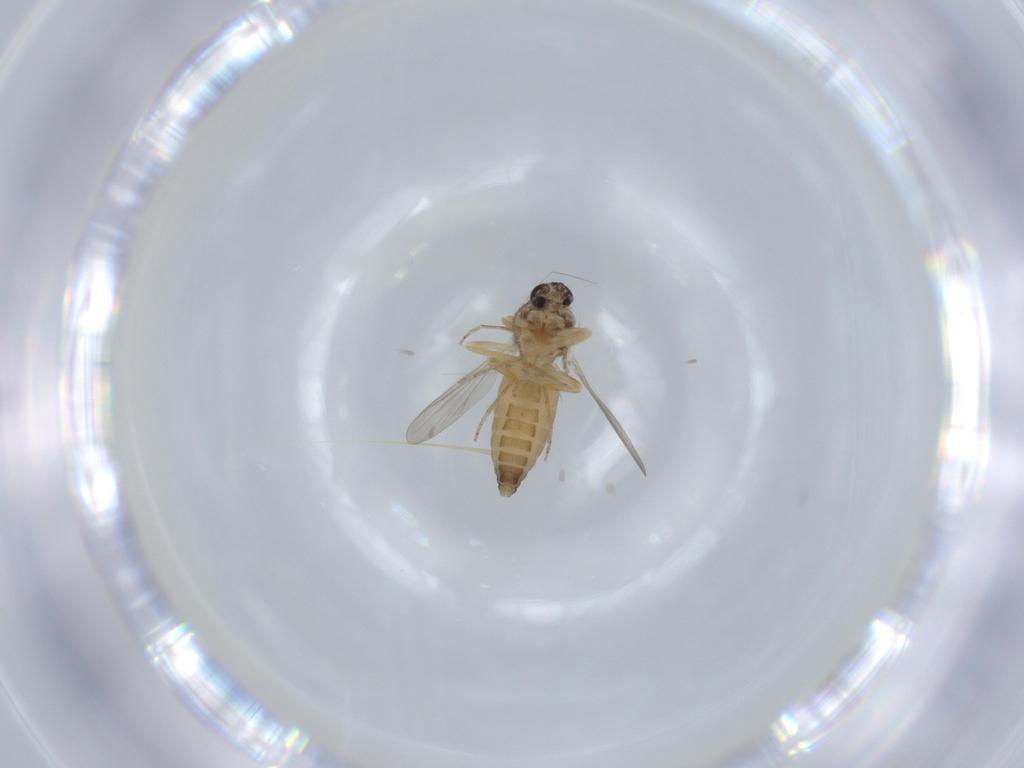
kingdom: Animalia
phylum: Arthropoda
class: Insecta
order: Diptera
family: Ceratopogonidae
